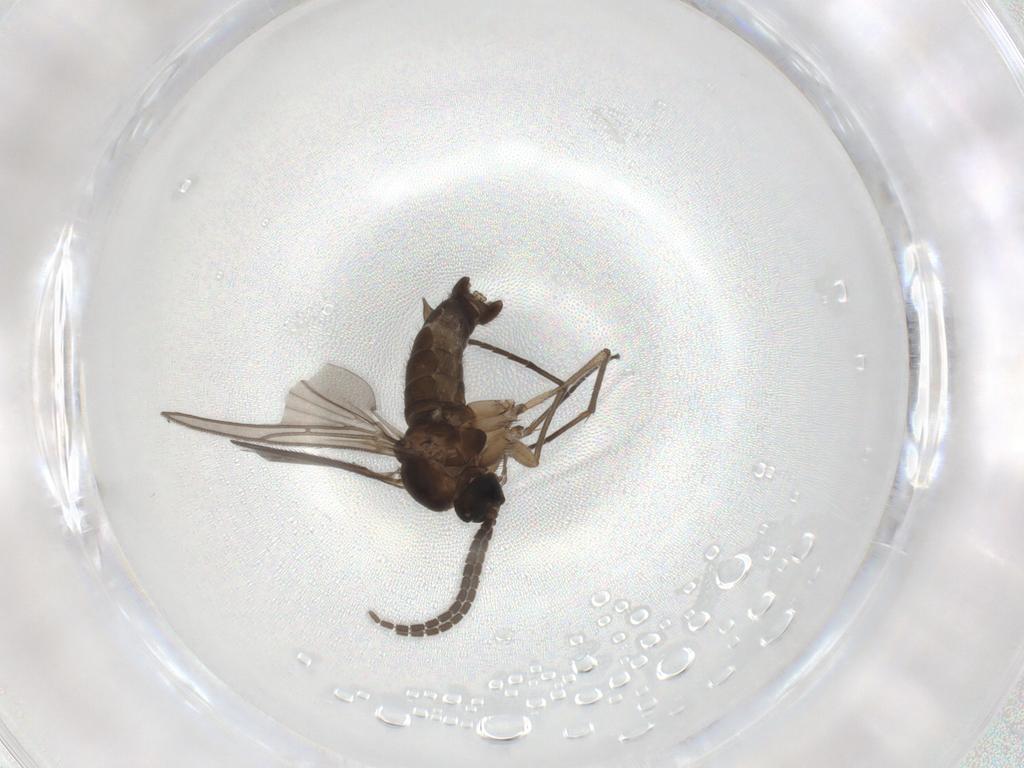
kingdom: Animalia
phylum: Arthropoda
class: Insecta
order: Diptera
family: Sciaridae
